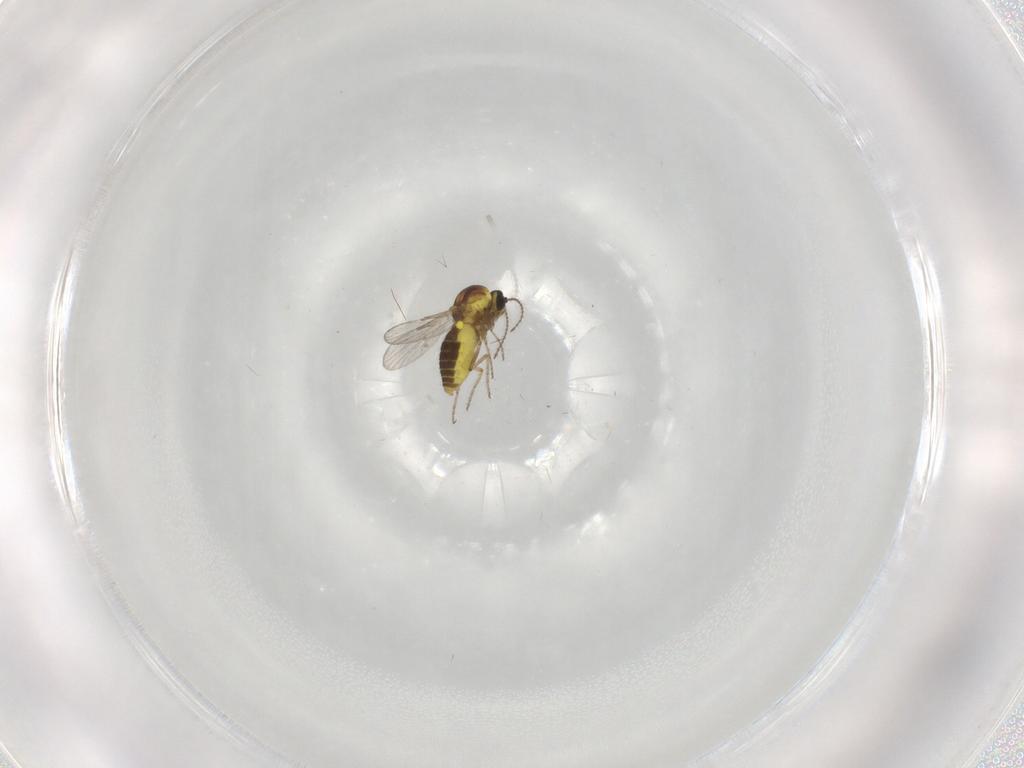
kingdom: Animalia
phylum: Arthropoda
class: Insecta
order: Diptera
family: Ceratopogonidae
